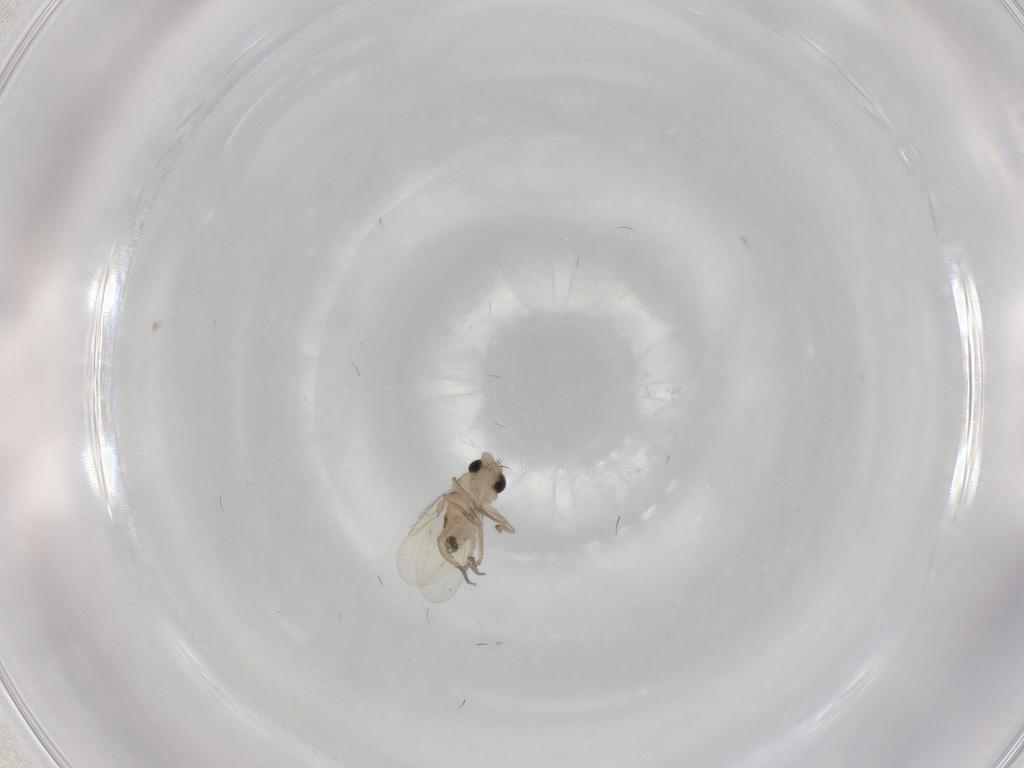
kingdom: Animalia
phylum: Arthropoda
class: Insecta
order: Diptera
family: Phoridae
